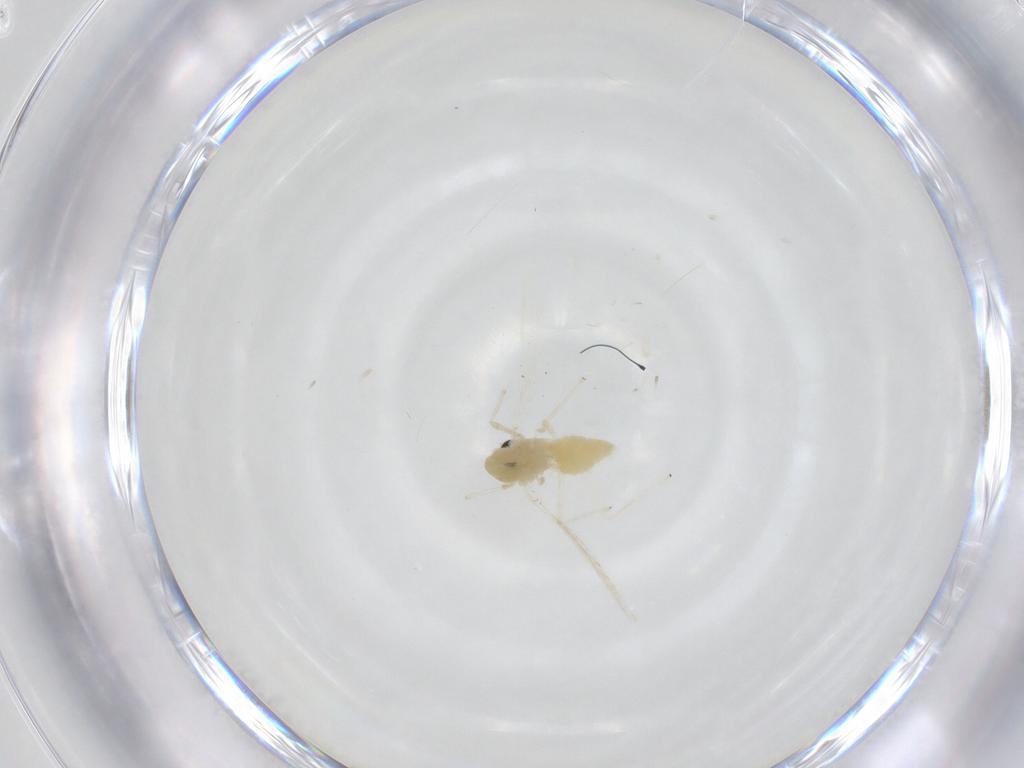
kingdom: Animalia
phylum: Arthropoda
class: Insecta
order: Diptera
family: Chironomidae
